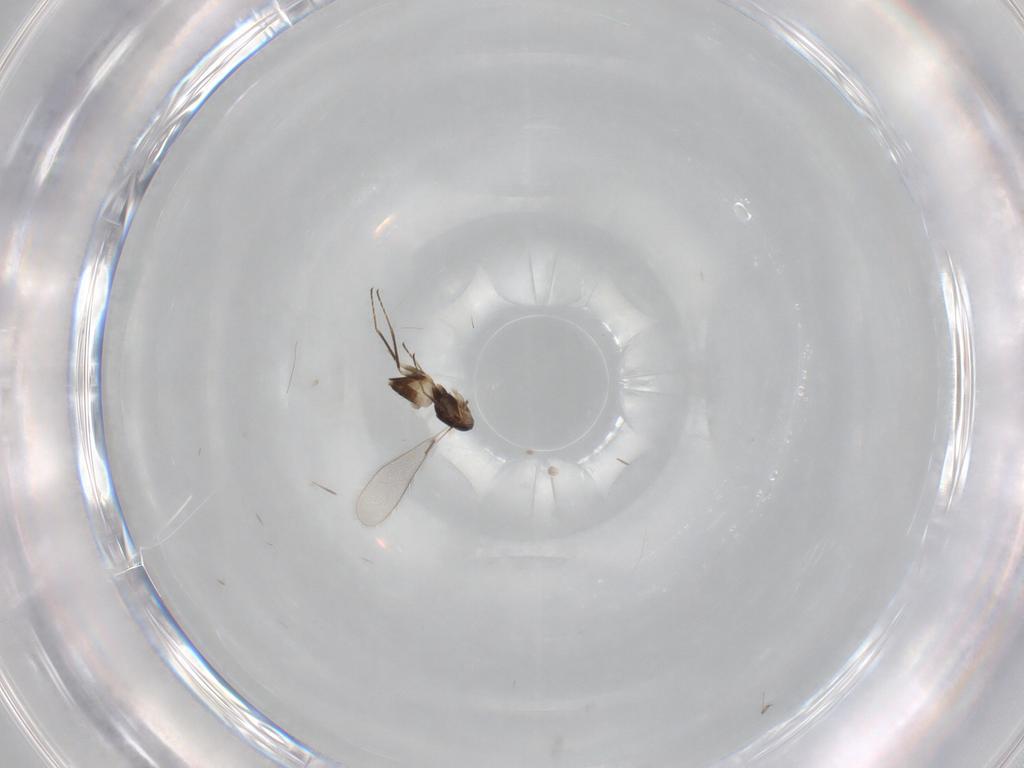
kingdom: Animalia
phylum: Arthropoda
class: Insecta
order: Hymenoptera
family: Mymaridae
